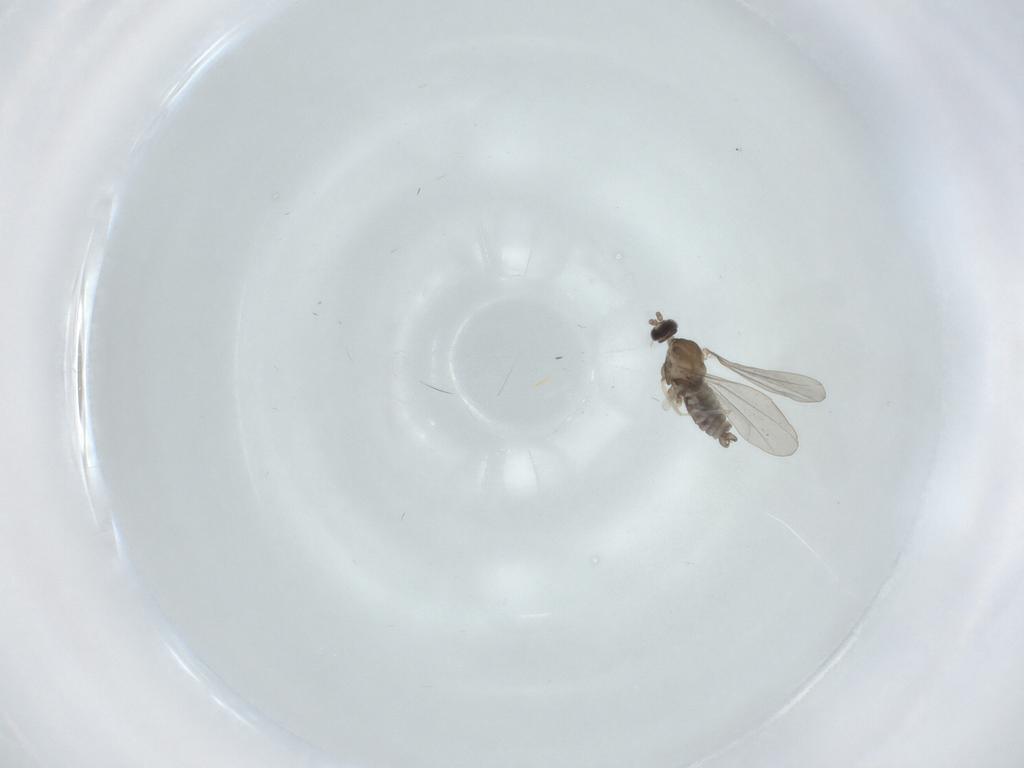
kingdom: Animalia
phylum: Arthropoda
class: Insecta
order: Diptera
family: Cecidomyiidae
